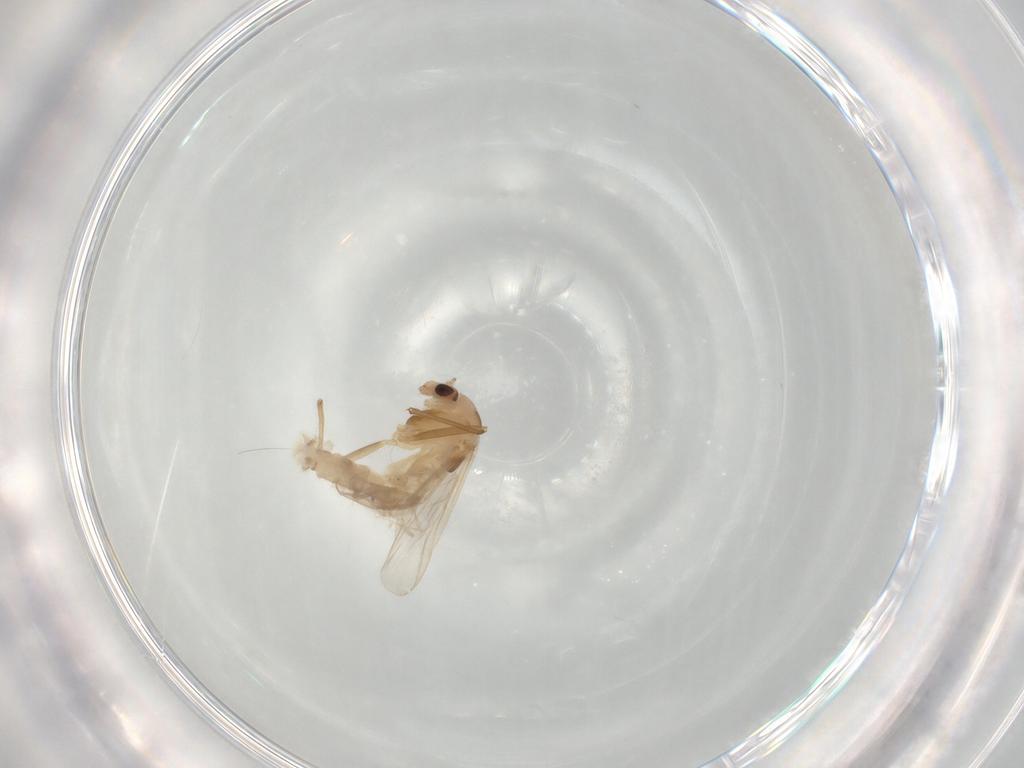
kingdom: Animalia
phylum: Arthropoda
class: Insecta
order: Diptera
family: Chironomidae
